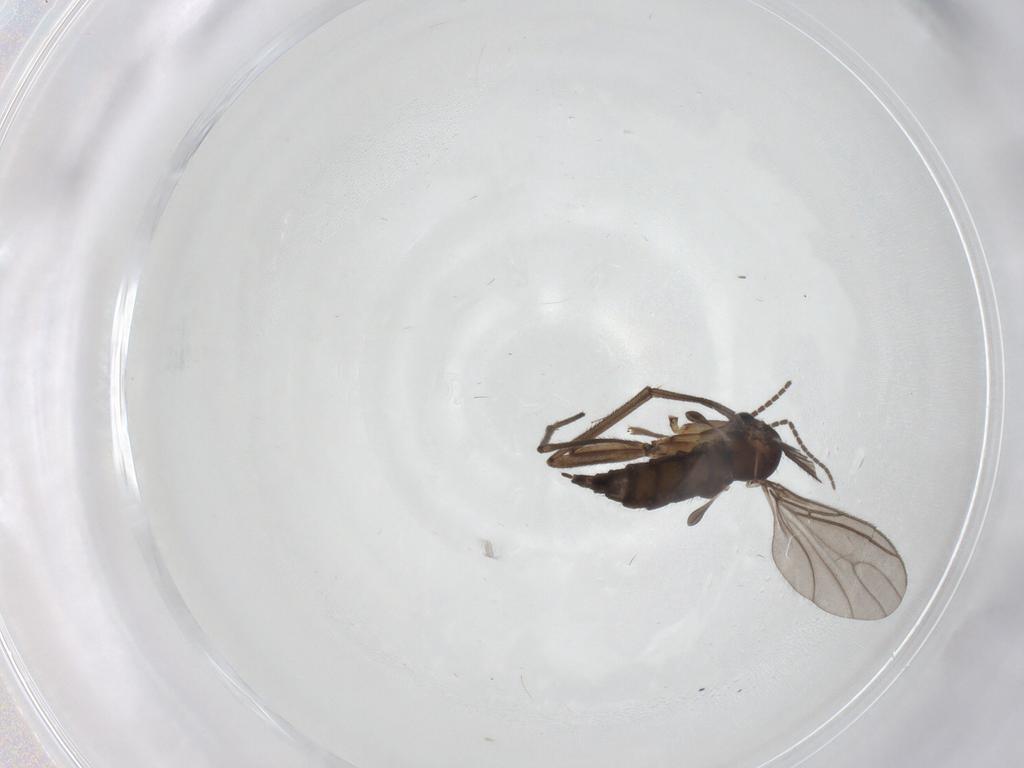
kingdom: Animalia
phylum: Arthropoda
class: Insecta
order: Diptera
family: Sciaridae
